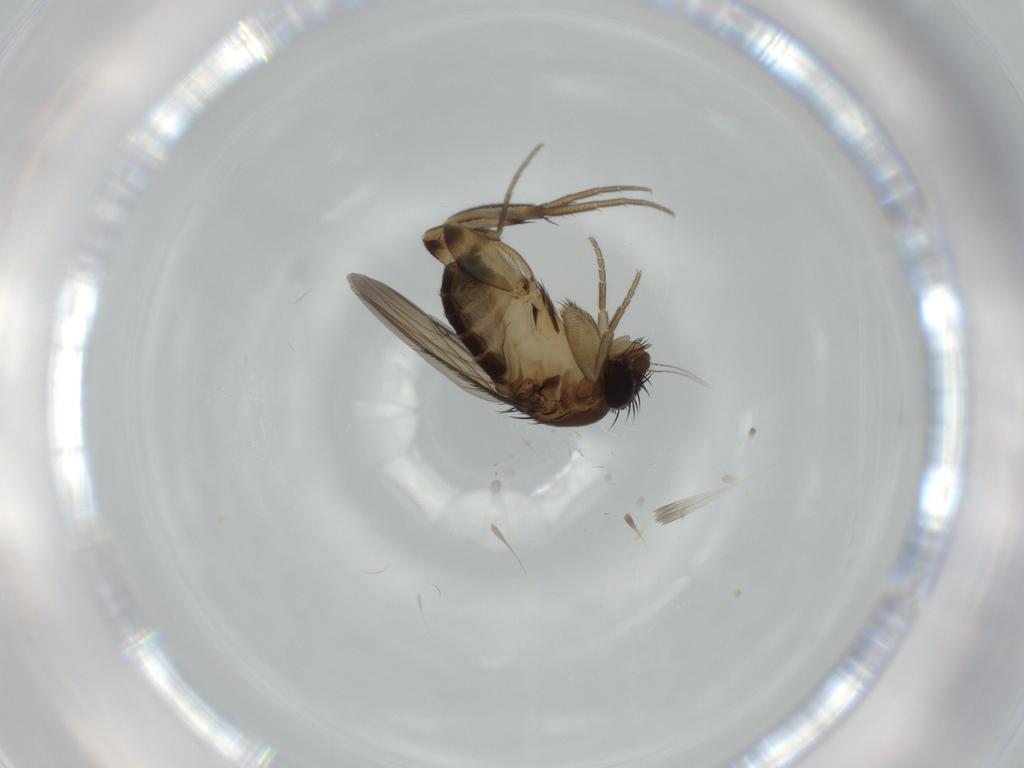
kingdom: Animalia
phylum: Arthropoda
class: Insecta
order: Diptera
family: Phoridae
